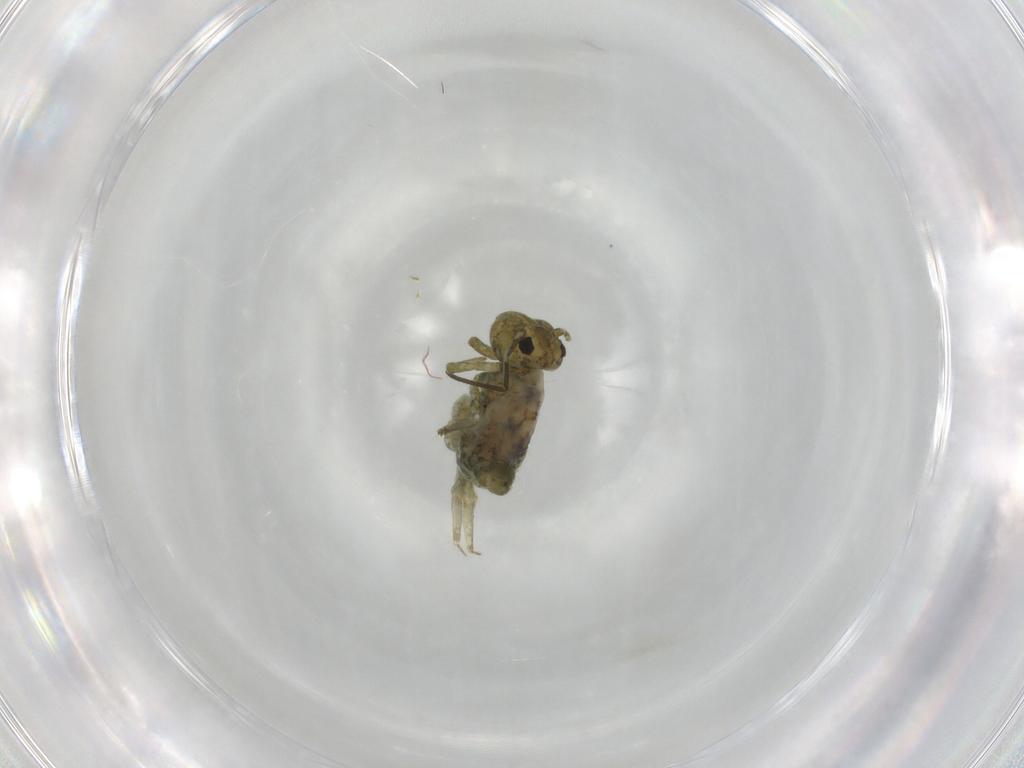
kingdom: Animalia
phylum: Arthropoda
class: Collembola
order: Symphypleona
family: Sminthuridae
